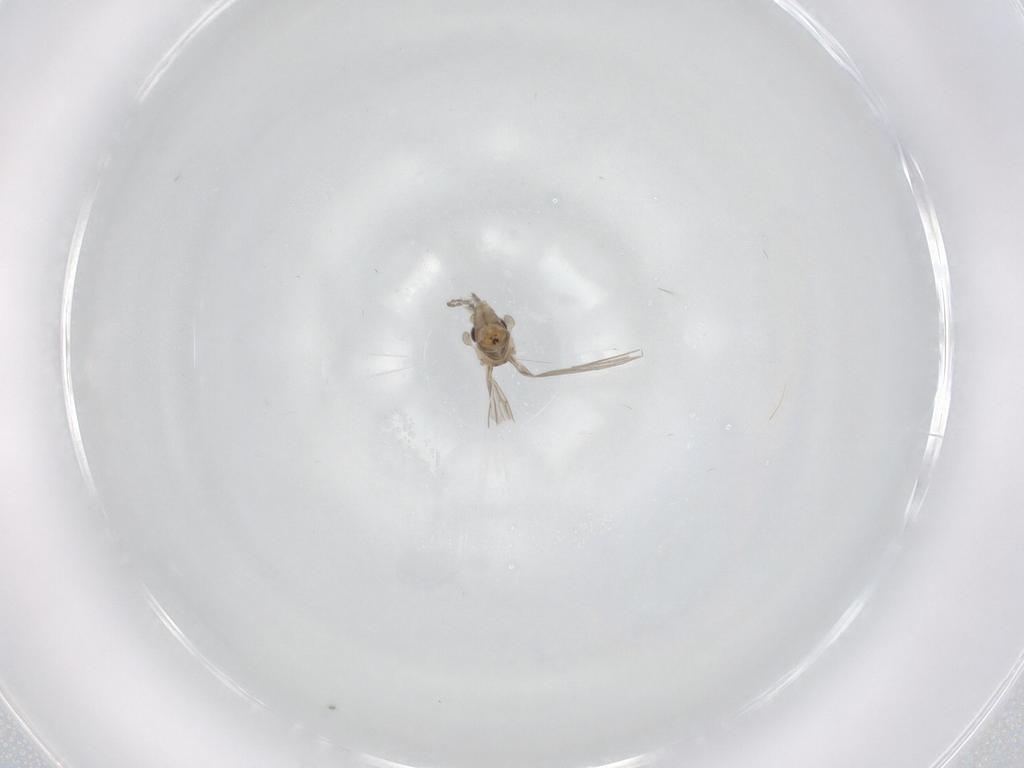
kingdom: Animalia
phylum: Arthropoda
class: Insecta
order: Diptera
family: Psychodidae
